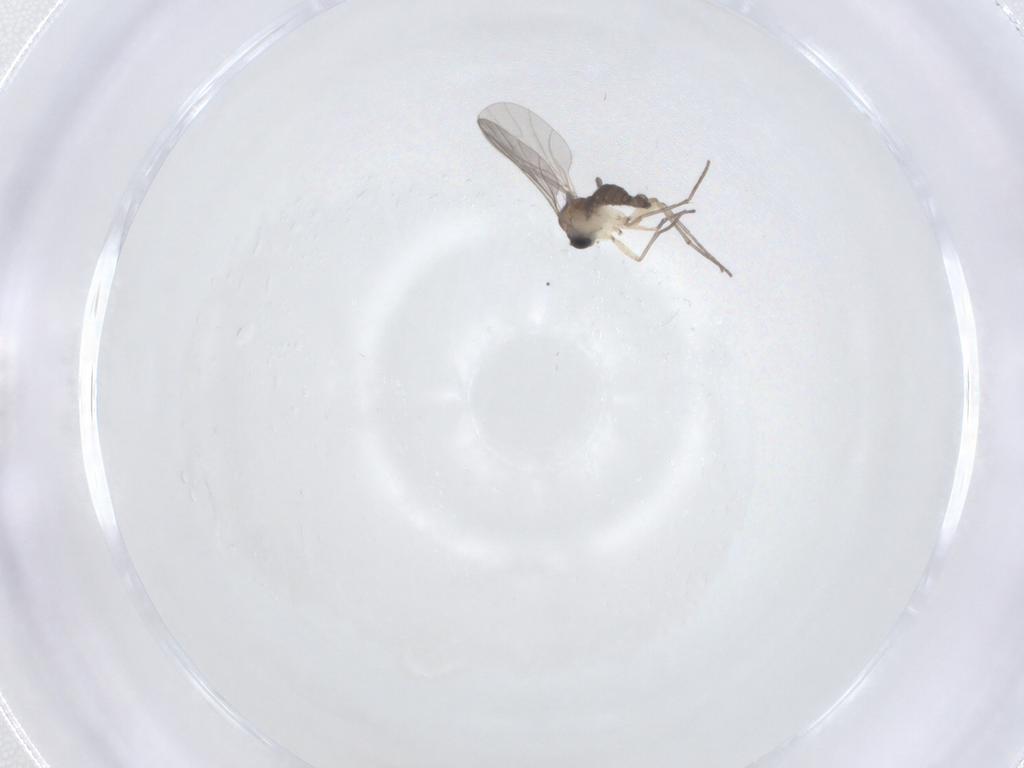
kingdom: Animalia
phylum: Arthropoda
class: Insecta
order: Diptera
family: Sciaridae
